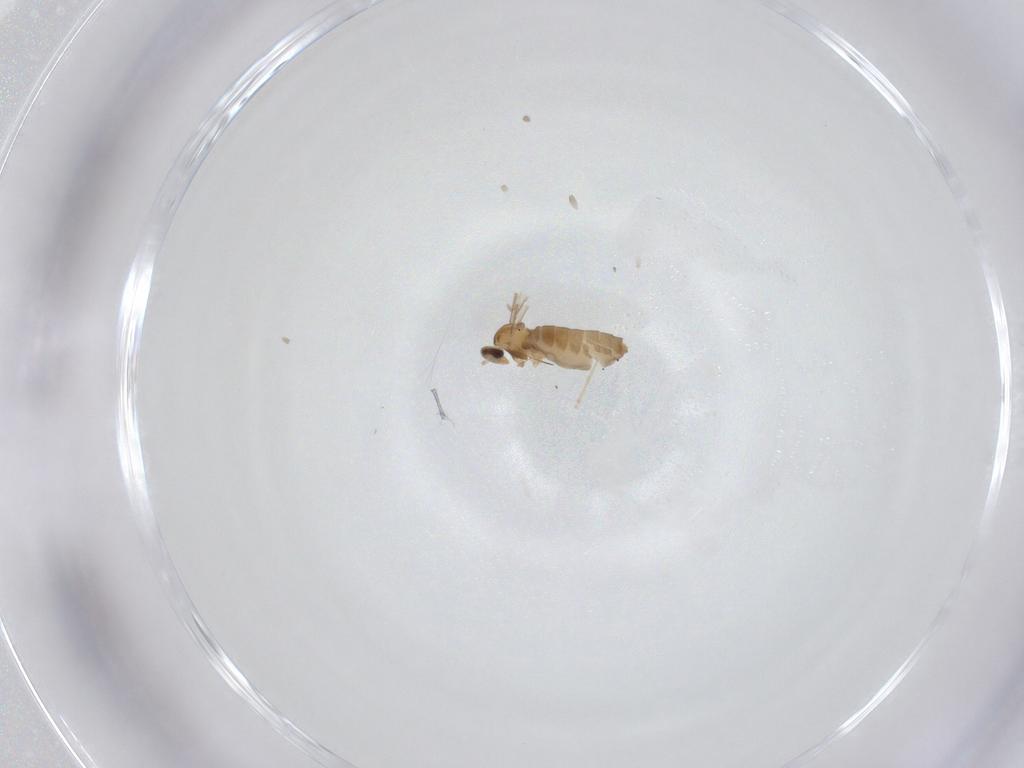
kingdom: Animalia
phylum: Arthropoda
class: Insecta
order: Diptera
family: Cecidomyiidae
